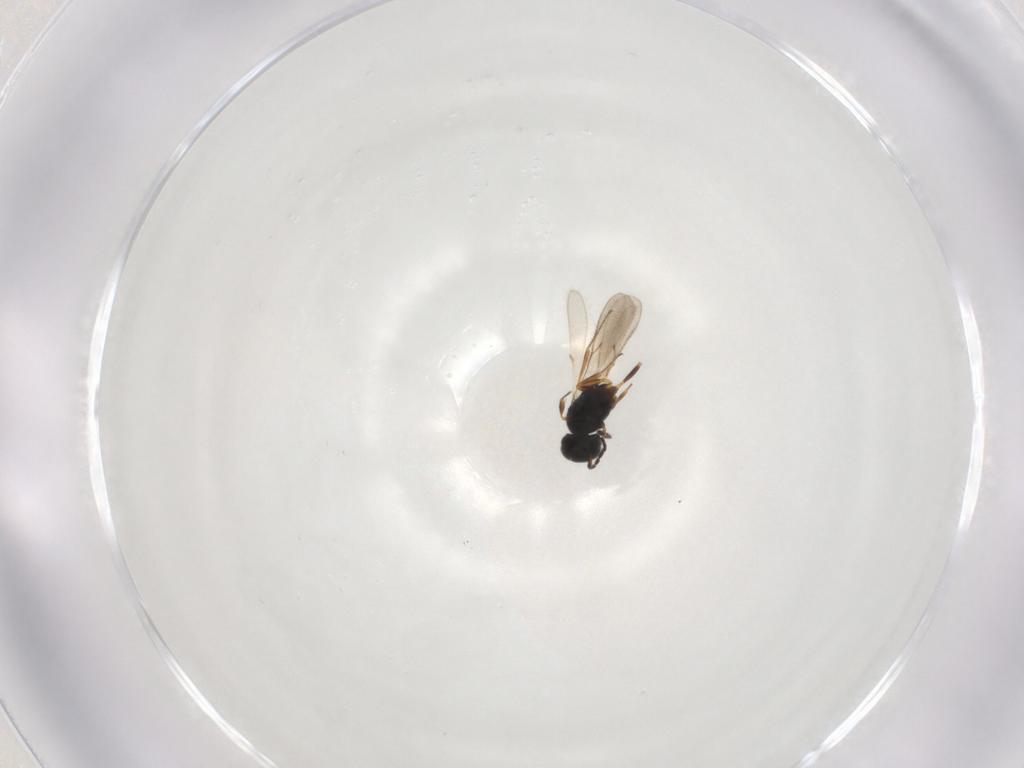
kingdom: Animalia
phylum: Arthropoda
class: Insecta
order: Hymenoptera
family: Scelionidae
